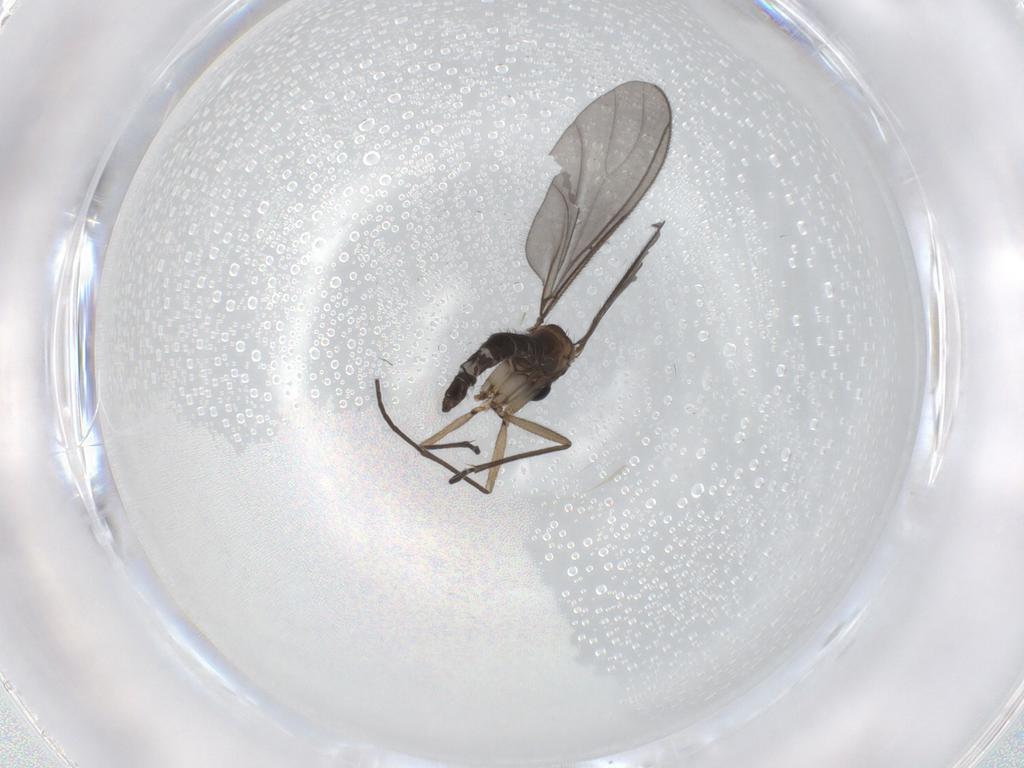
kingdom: Animalia
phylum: Arthropoda
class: Insecta
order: Diptera
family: Sciaridae
